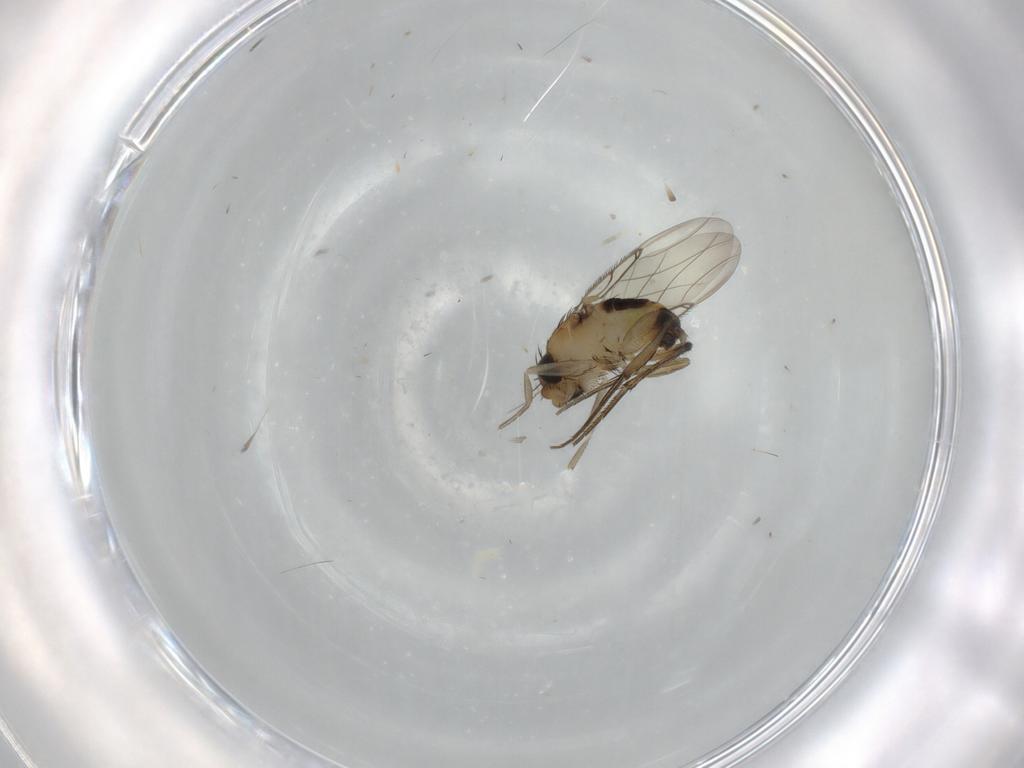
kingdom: Animalia
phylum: Arthropoda
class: Insecta
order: Diptera
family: Phoridae
